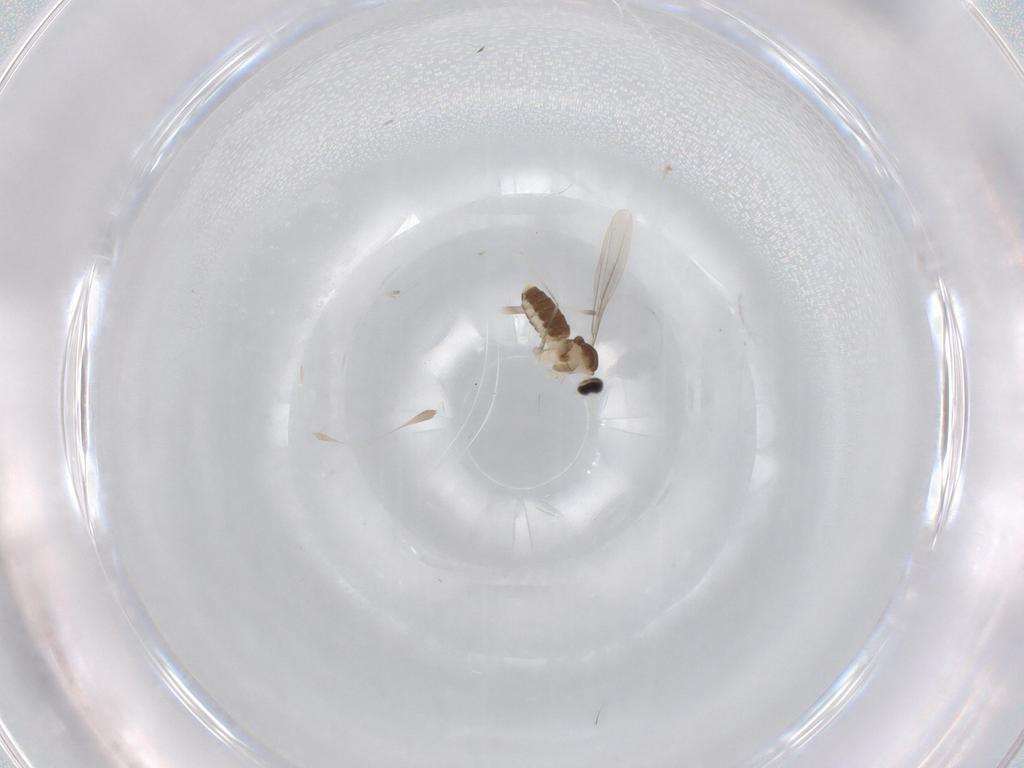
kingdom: Animalia
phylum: Arthropoda
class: Insecta
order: Diptera
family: Cecidomyiidae
